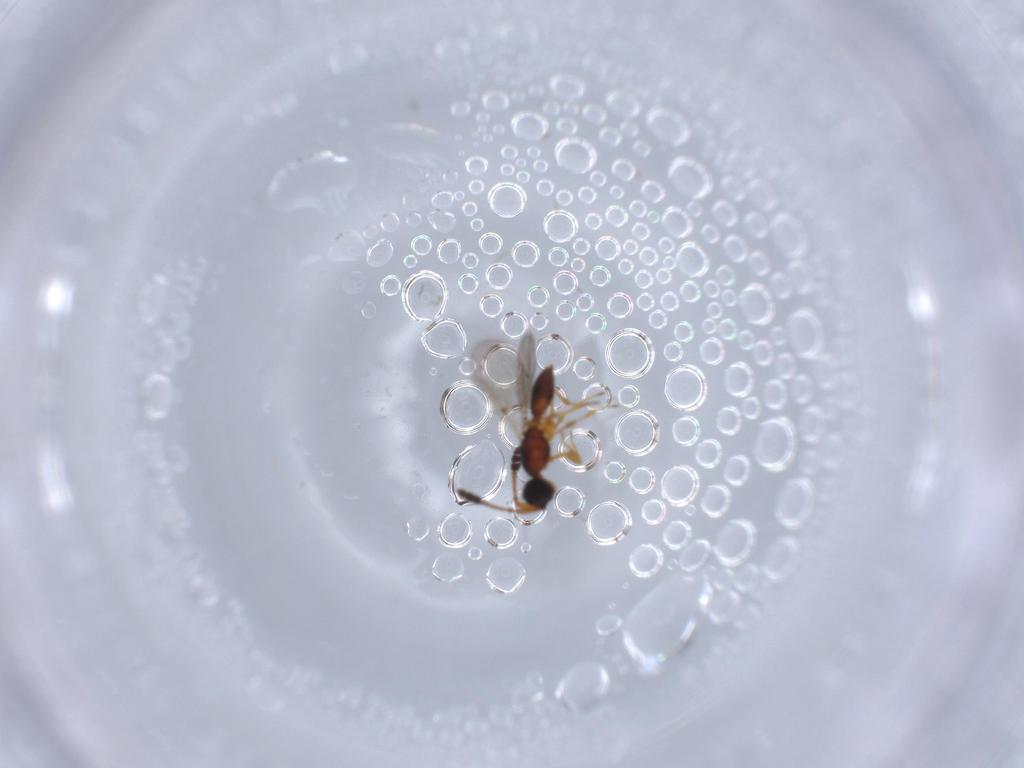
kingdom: Animalia
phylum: Arthropoda
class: Insecta
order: Hymenoptera
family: Diapriidae
